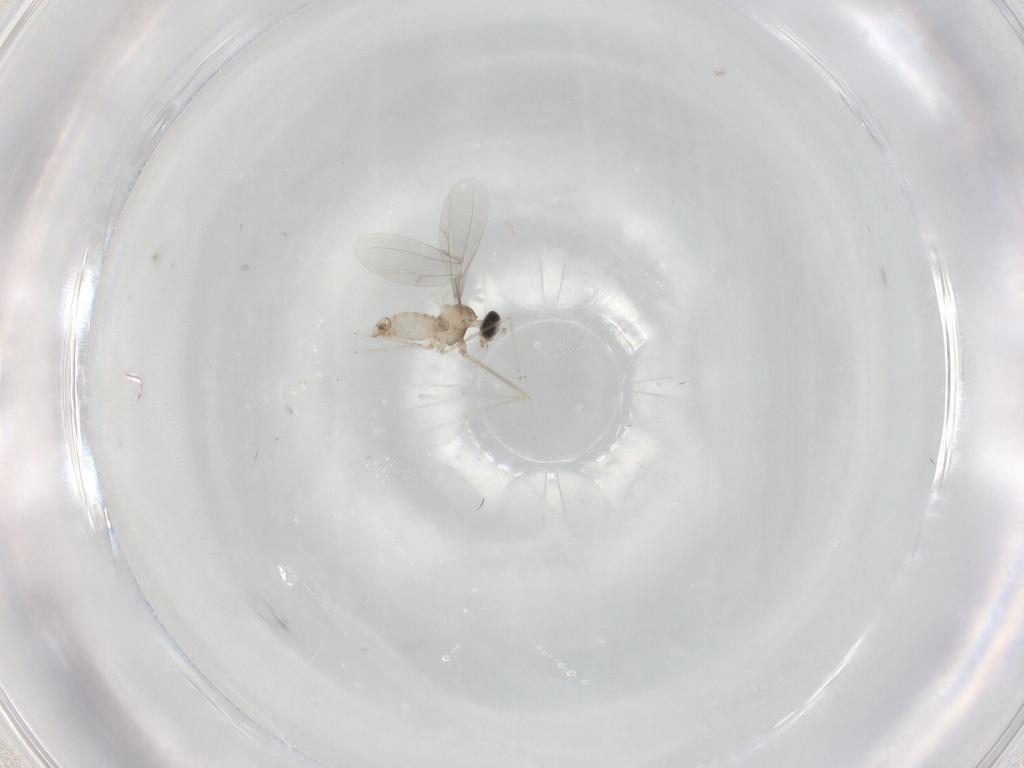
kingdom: Animalia
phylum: Arthropoda
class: Insecta
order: Diptera
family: Cecidomyiidae
